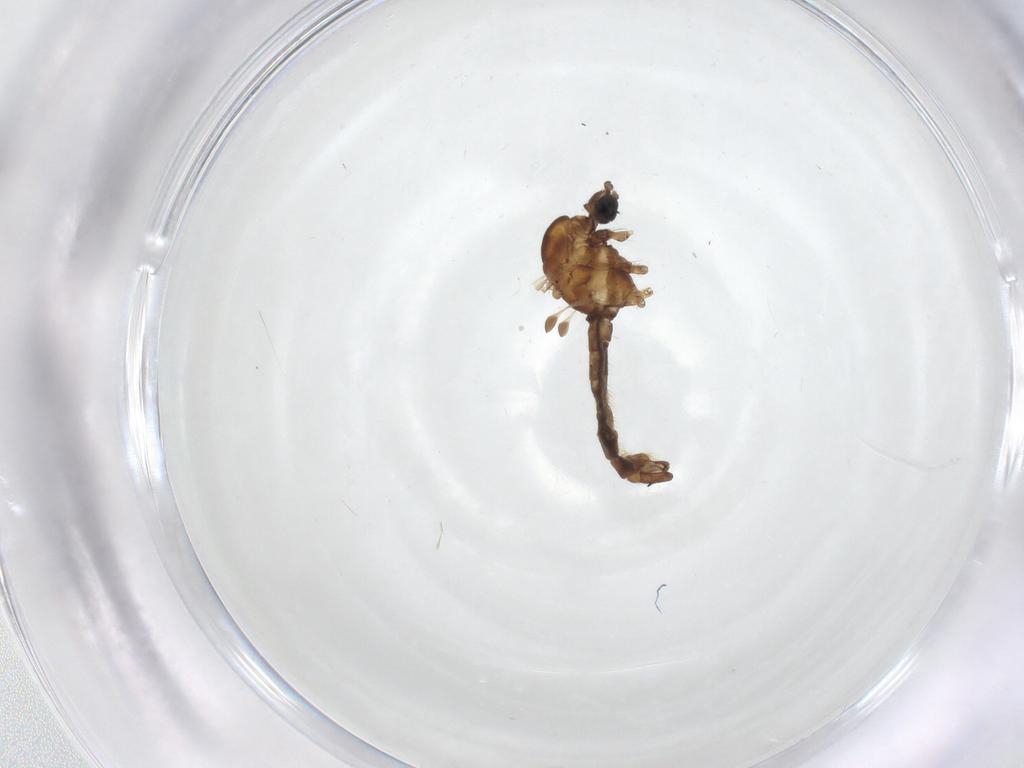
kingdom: Animalia
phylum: Arthropoda
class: Insecta
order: Diptera
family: Limoniidae
